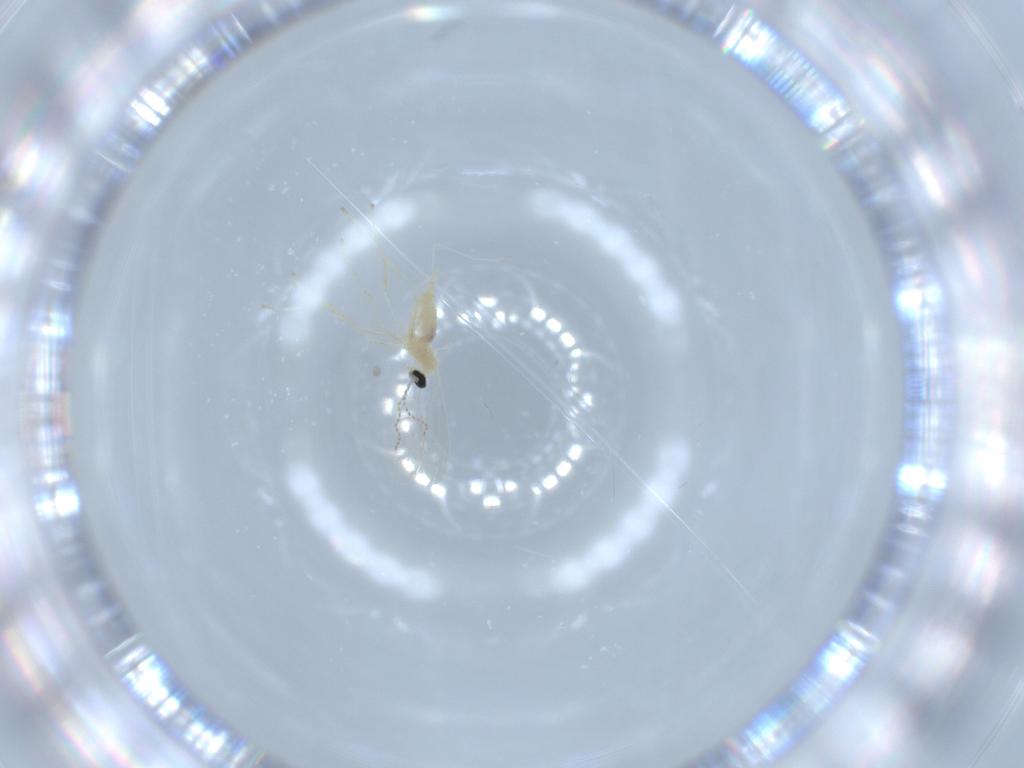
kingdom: Animalia
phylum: Arthropoda
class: Insecta
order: Diptera
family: Cecidomyiidae
